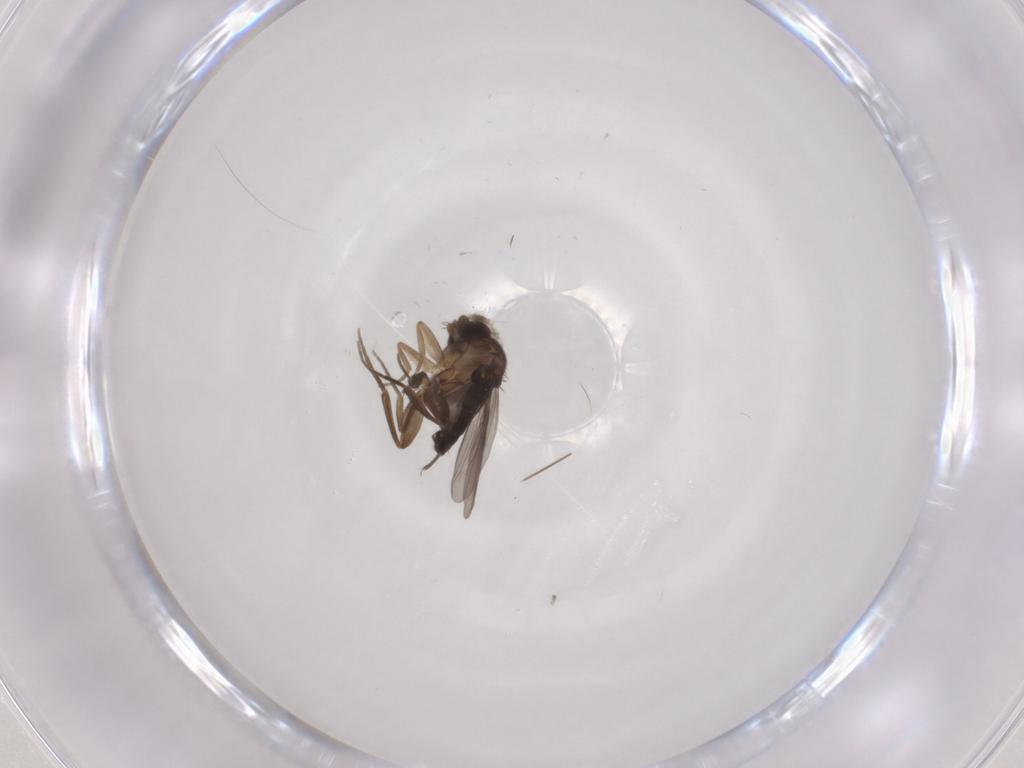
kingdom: Animalia
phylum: Arthropoda
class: Insecta
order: Diptera
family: Phoridae
